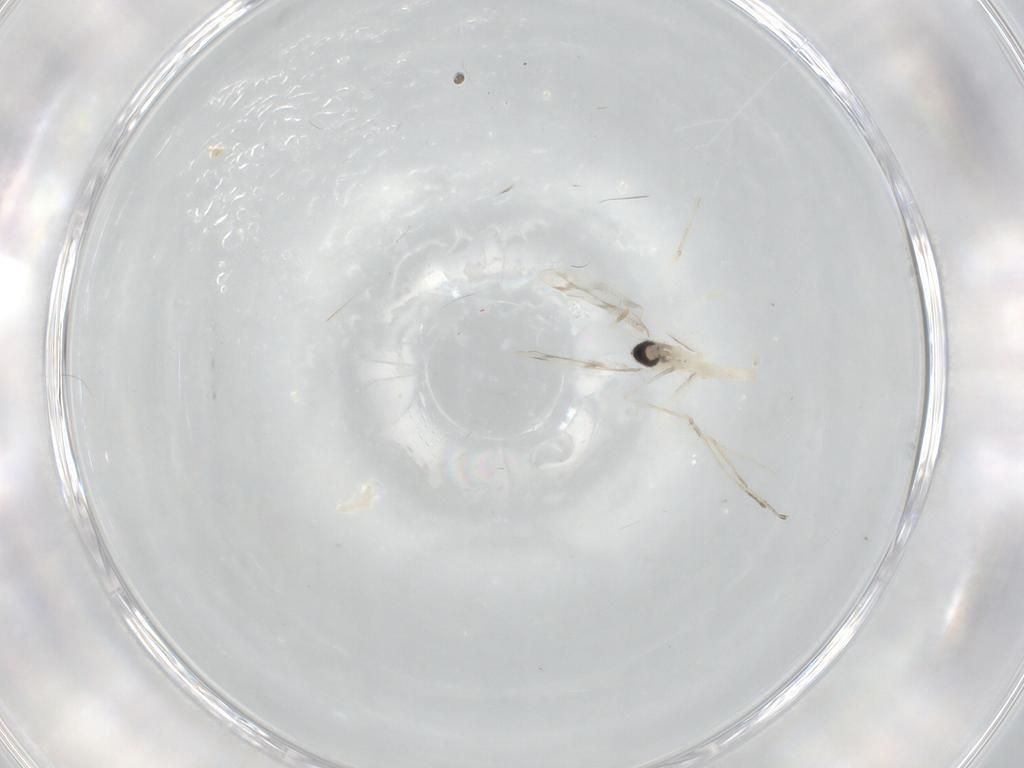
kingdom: Animalia
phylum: Arthropoda
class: Insecta
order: Diptera
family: Cecidomyiidae
